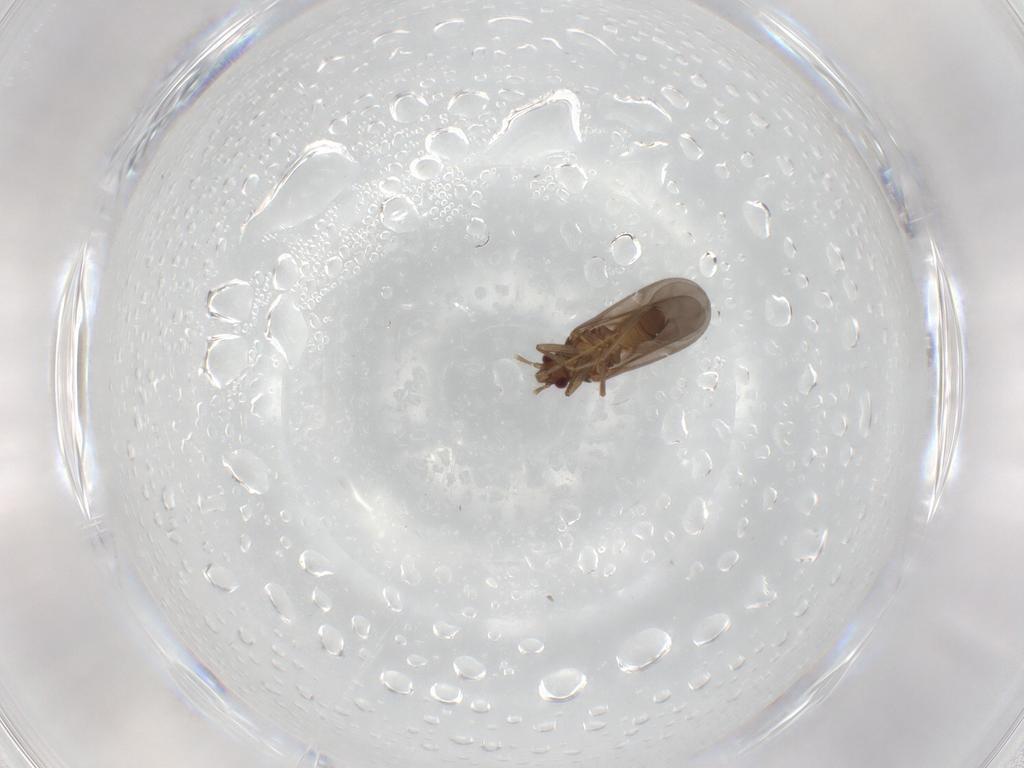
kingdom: Animalia
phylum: Arthropoda
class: Insecta
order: Hemiptera
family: Ceratocombidae
